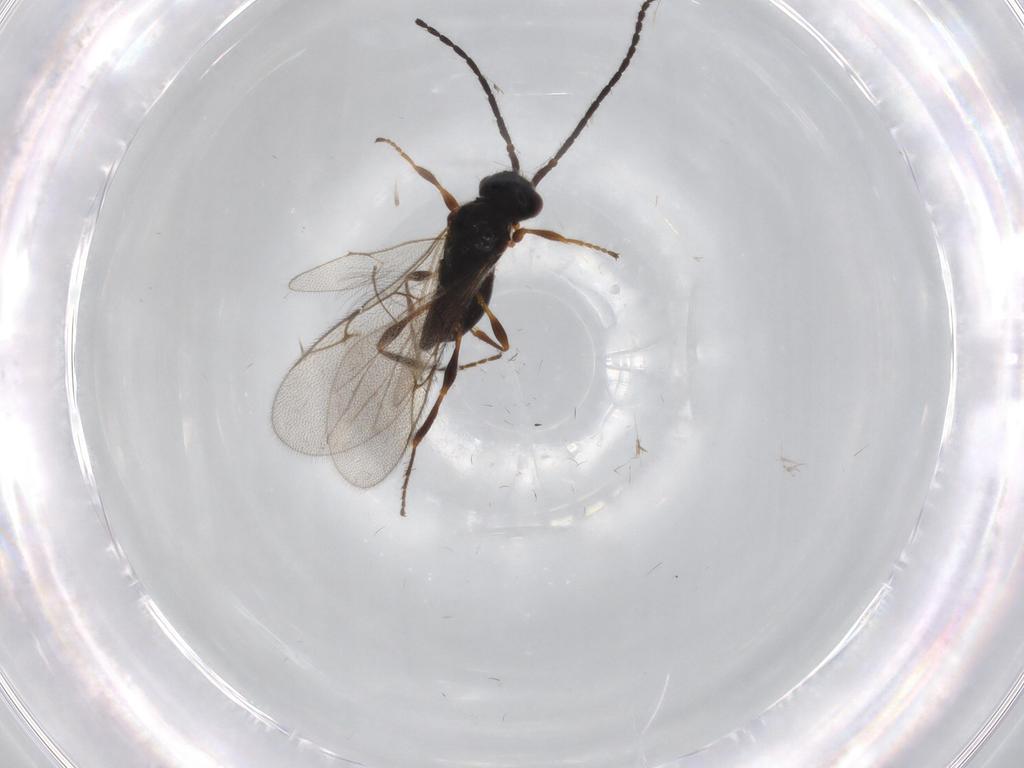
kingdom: Animalia
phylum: Arthropoda
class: Insecta
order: Hymenoptera
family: Diapriidae
